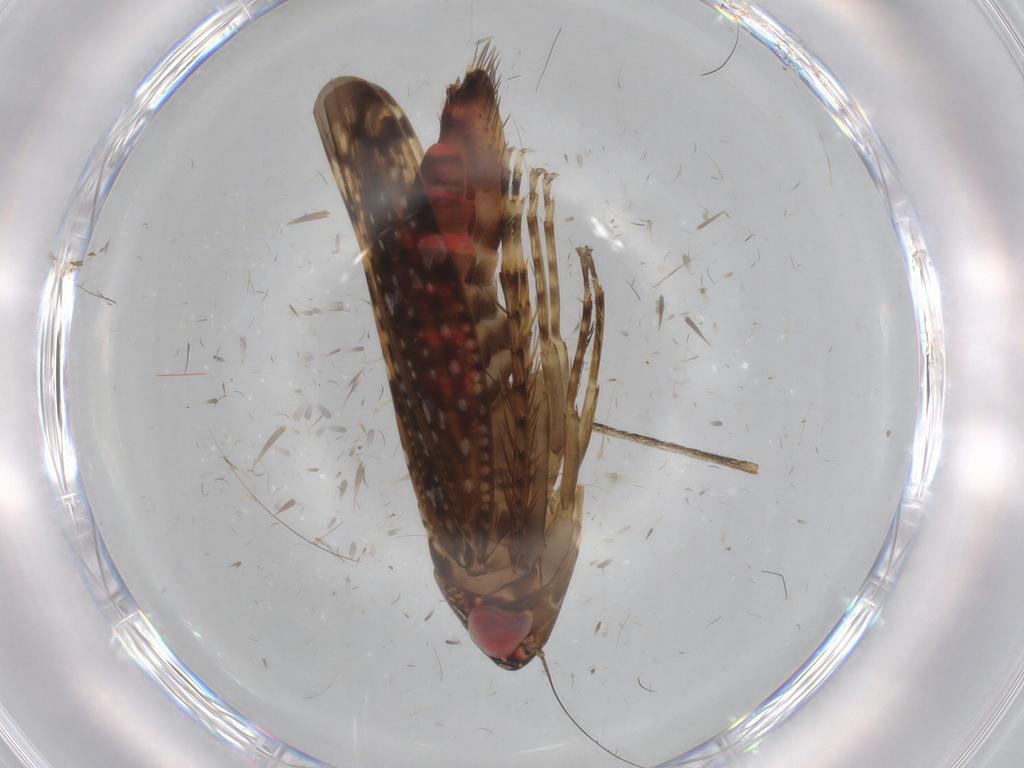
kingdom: Animalia
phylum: Arthropoda
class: Insecta
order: Hemiptera
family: Cicadellidae
